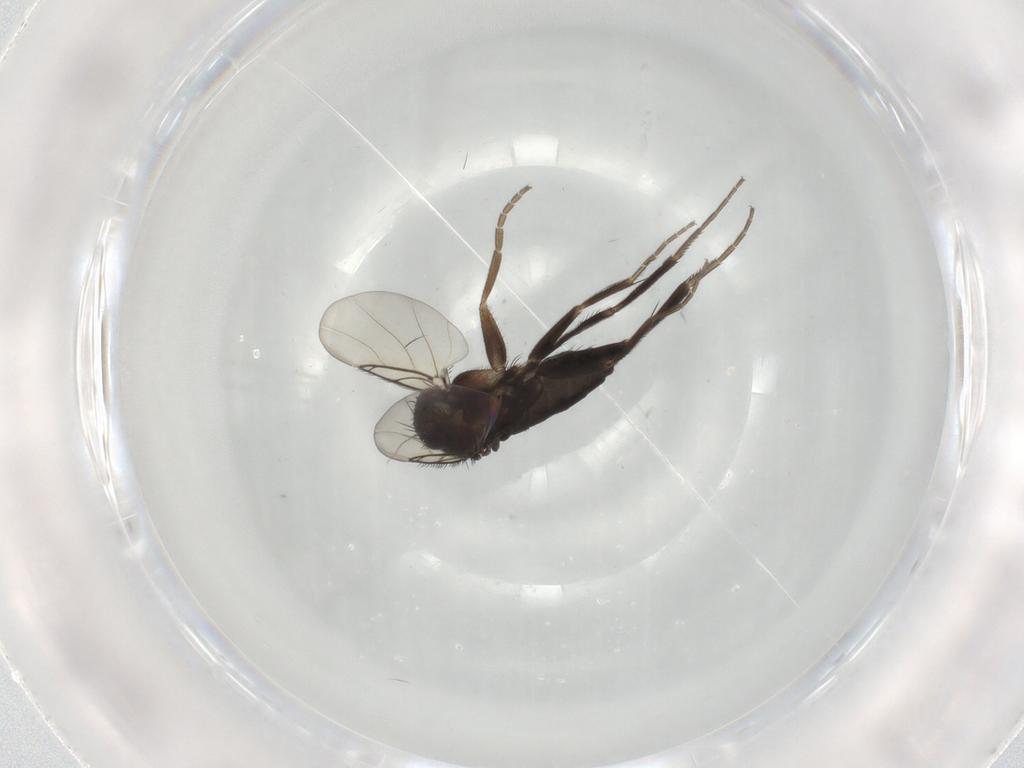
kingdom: Animalia
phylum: Arthropoda
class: Insecta
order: Diptera
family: Phoridae
